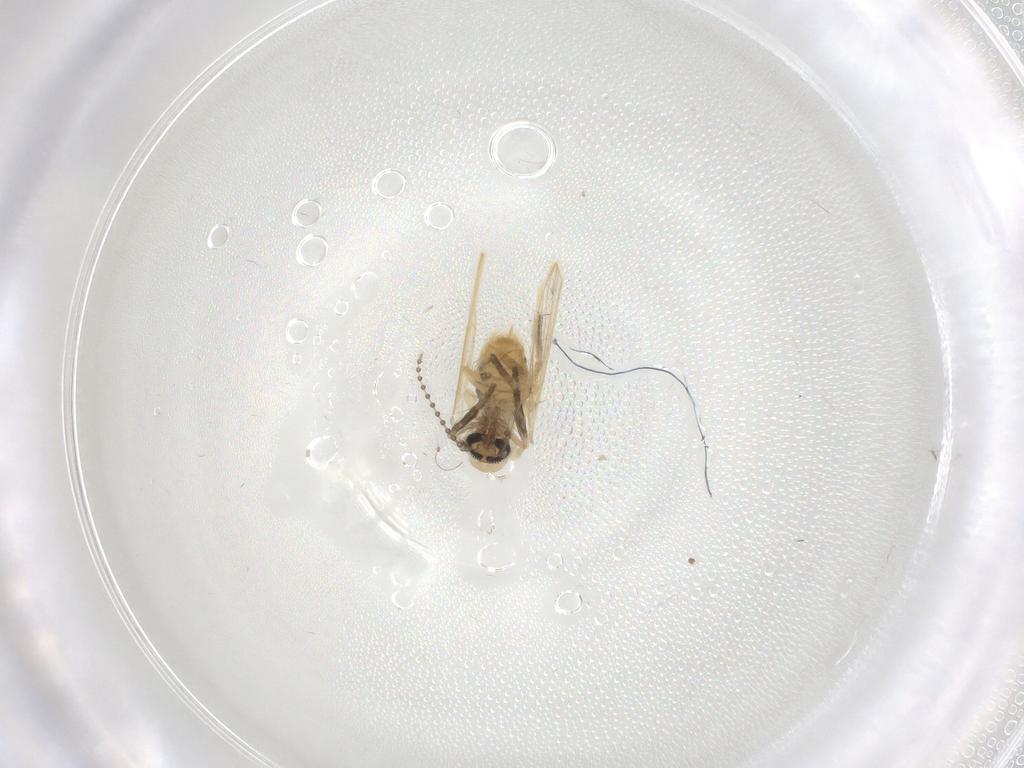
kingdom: Animalia
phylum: Arthropoda
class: Insecta
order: Diptera
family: Psychodidae
